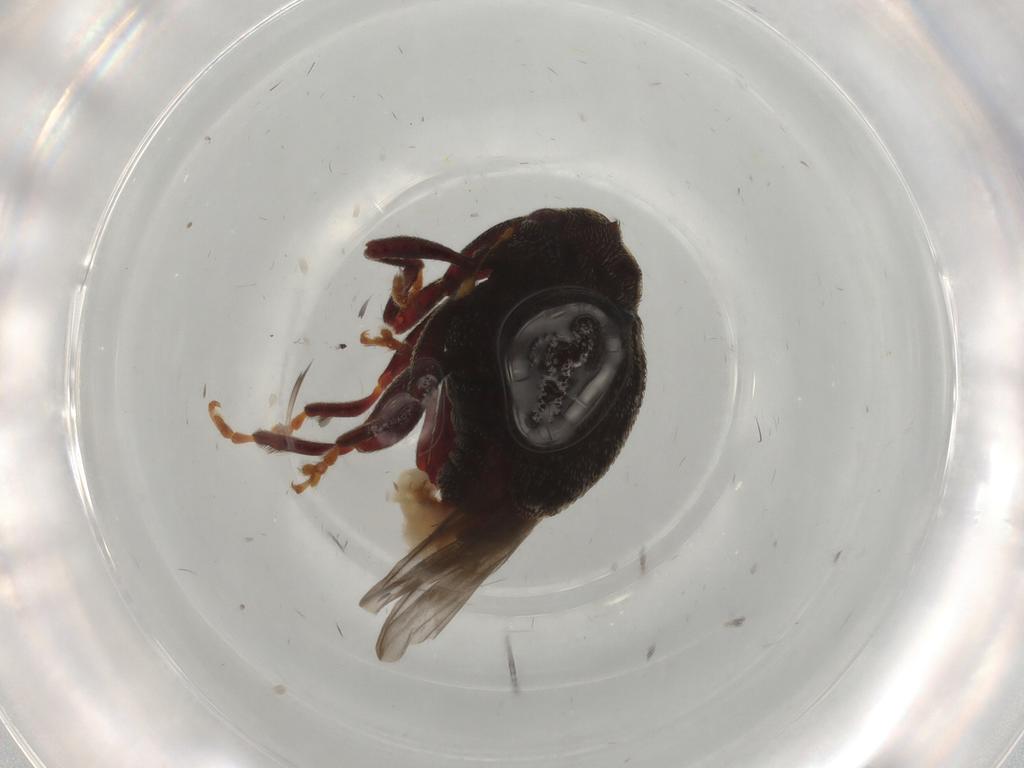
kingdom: Animalia
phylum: Arthropoda
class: Insecta
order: Coleoptera
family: Curculionidae
